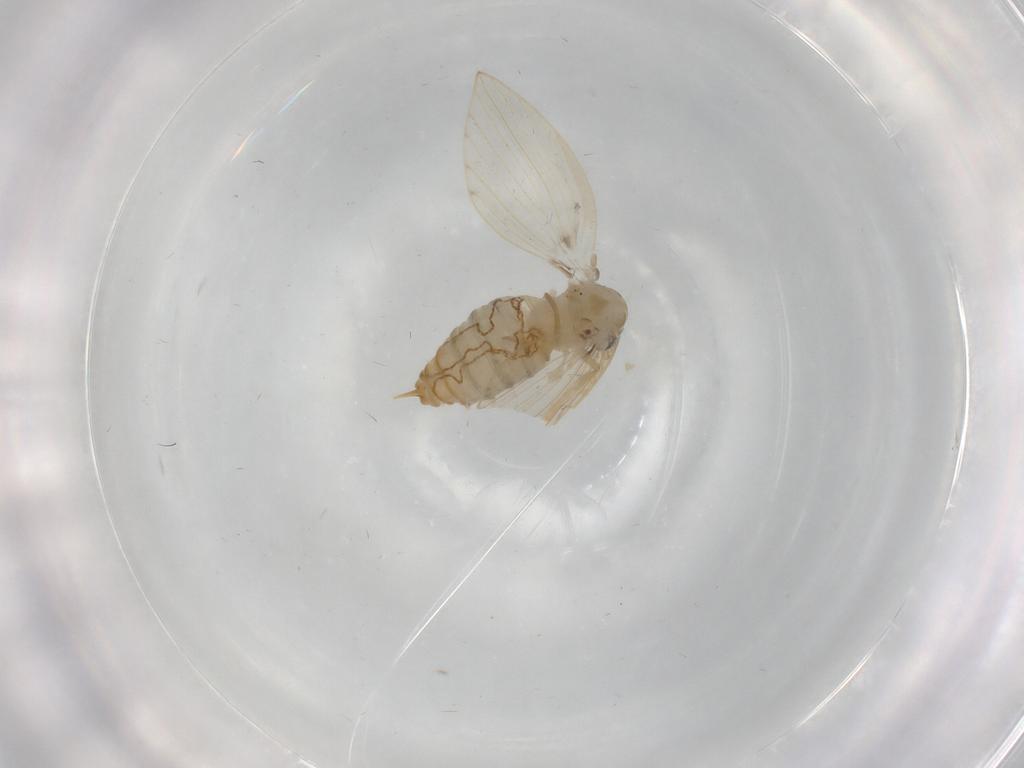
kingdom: Animalia
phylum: Arthropoda
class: Insecta
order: Diptera
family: Psychodidae
